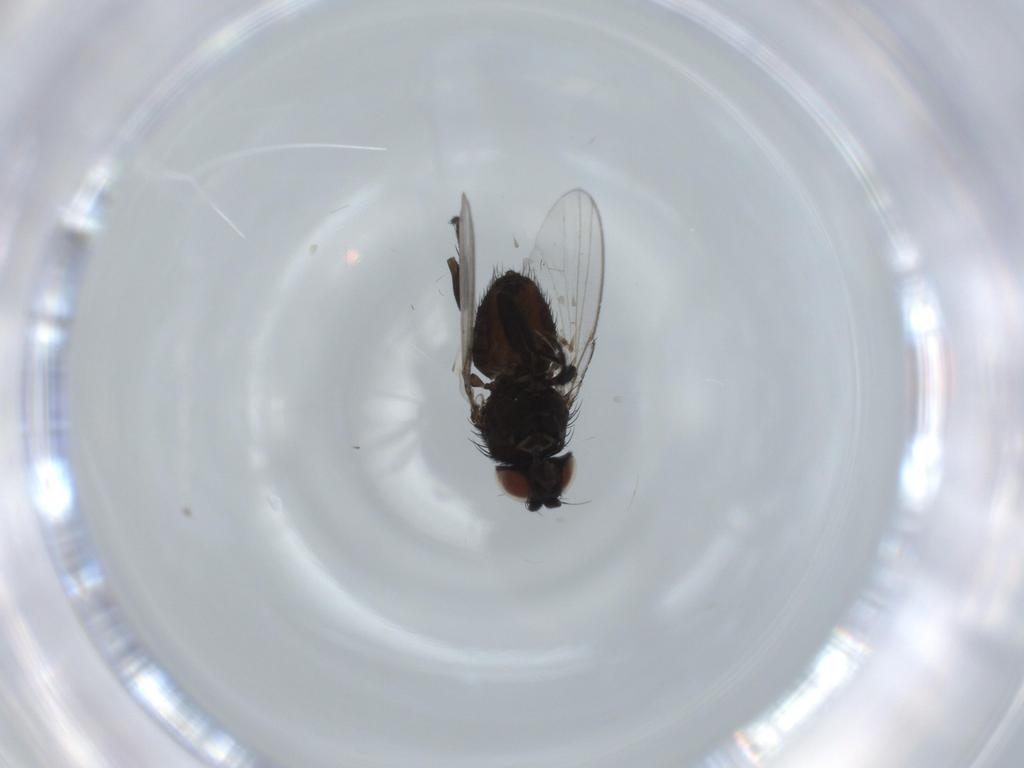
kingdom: Animalia
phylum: Arthropoda
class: Insecta
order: Diptera
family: Milichiidae
